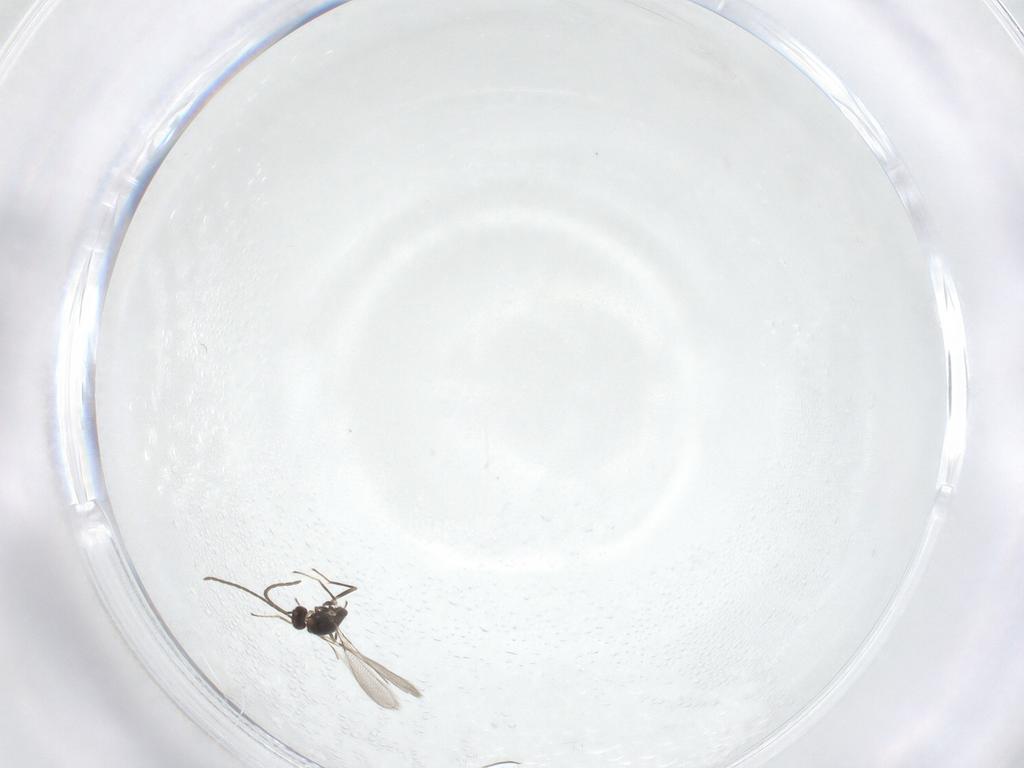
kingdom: Animalia
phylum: Arthropoda
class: Insecta
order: Hymenoptera
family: Mymaridae
